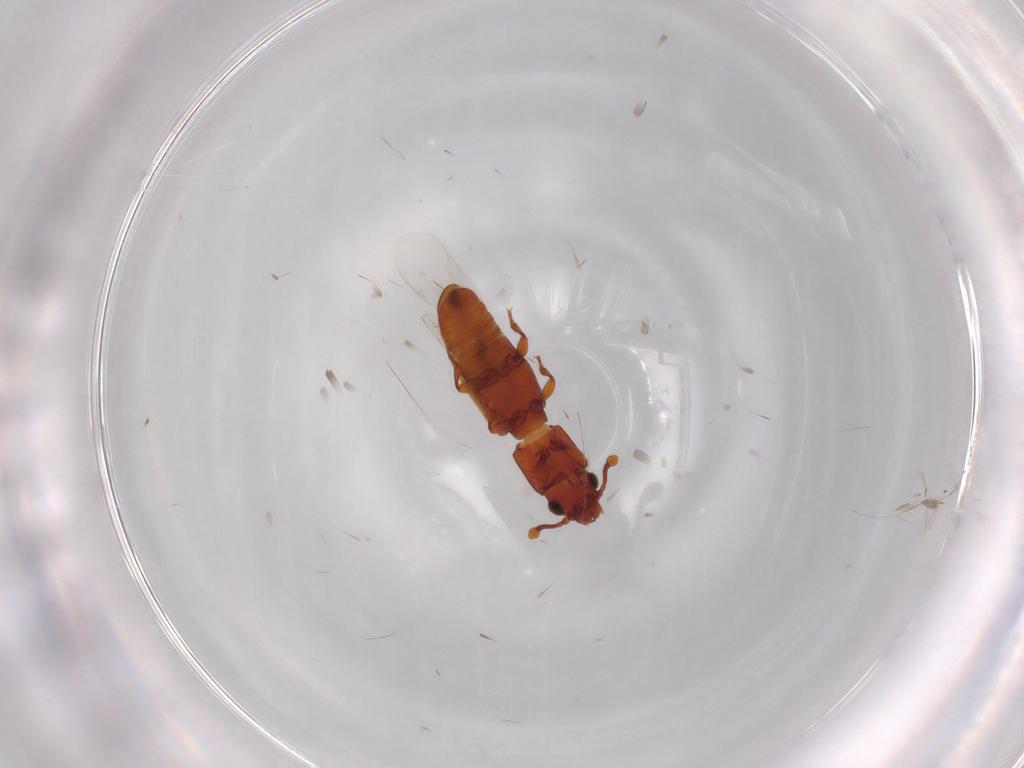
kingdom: Animalia
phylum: Arthropoda
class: Insecta
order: Coleoptera
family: Monotomidae
